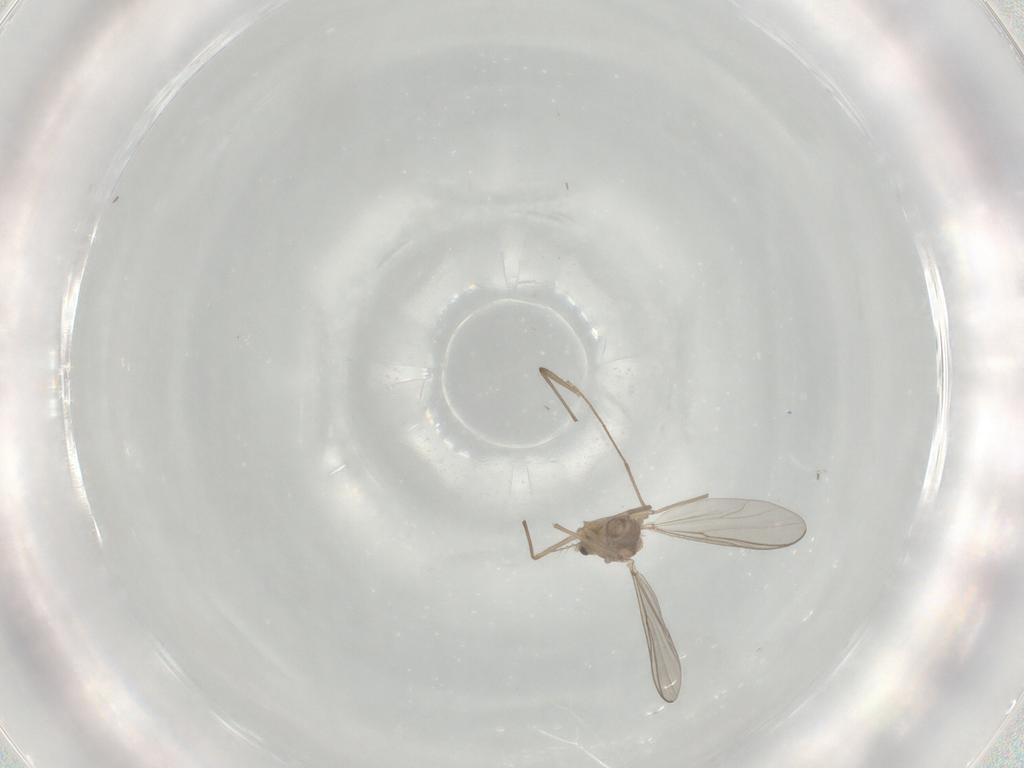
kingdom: Animalia
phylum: Arthropoda
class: Insecta
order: Diptera
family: Chironomidae
